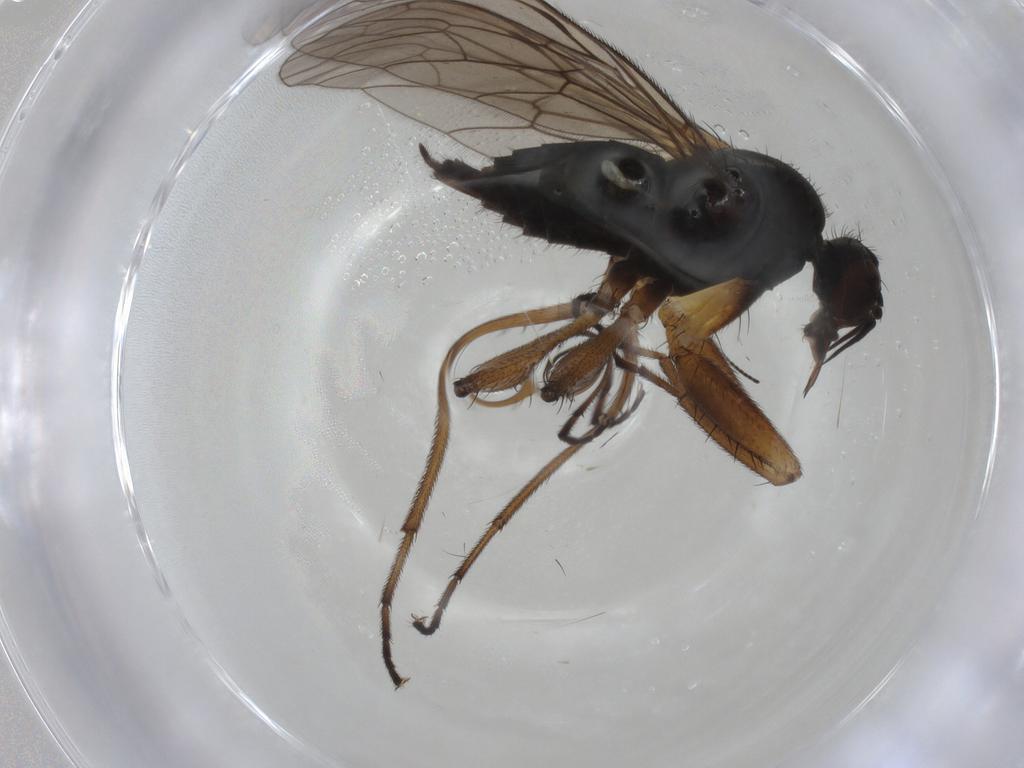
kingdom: Animalia
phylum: Arthropoda
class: Insecta
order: Diptera
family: Empididae
